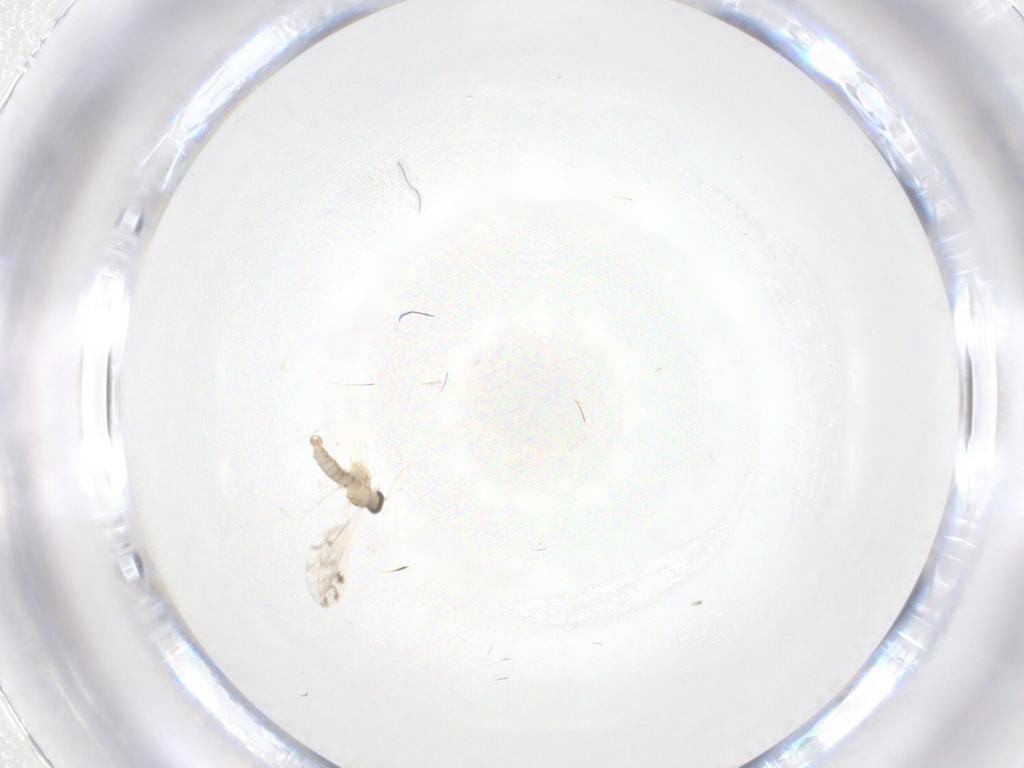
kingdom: Animalia
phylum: Arthropoda
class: Insecta
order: Diptera
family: Cecidomyiidae
